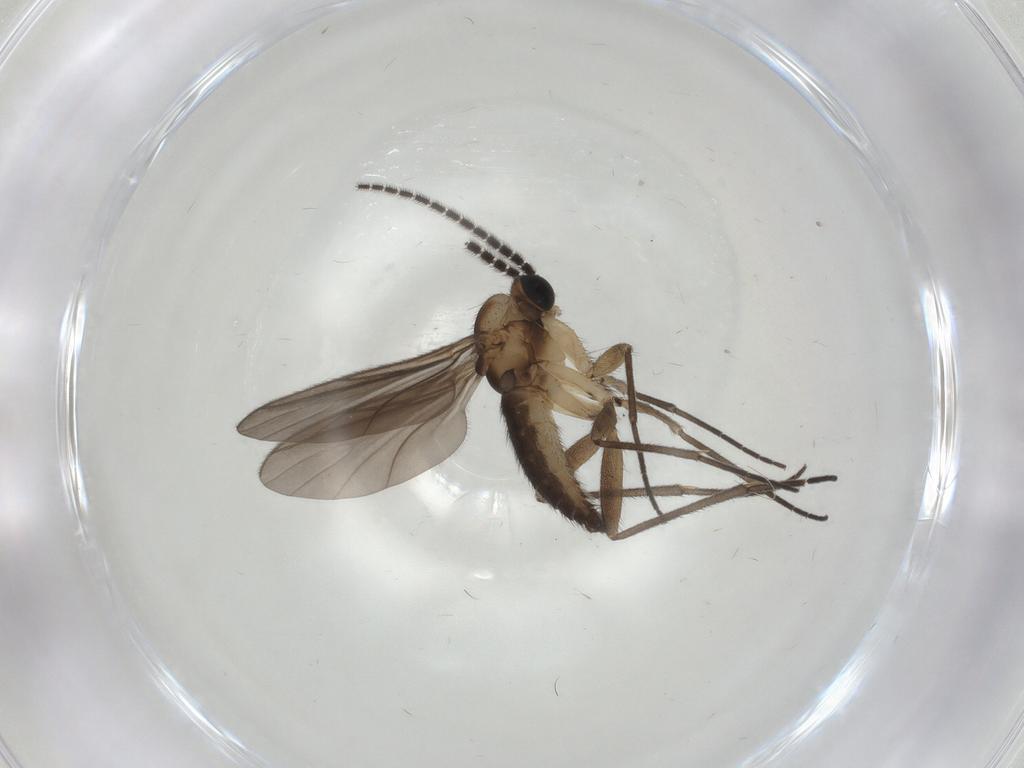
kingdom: Animalia
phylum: Arthropoda
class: Insecta
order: Diptera
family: Sciaridae
